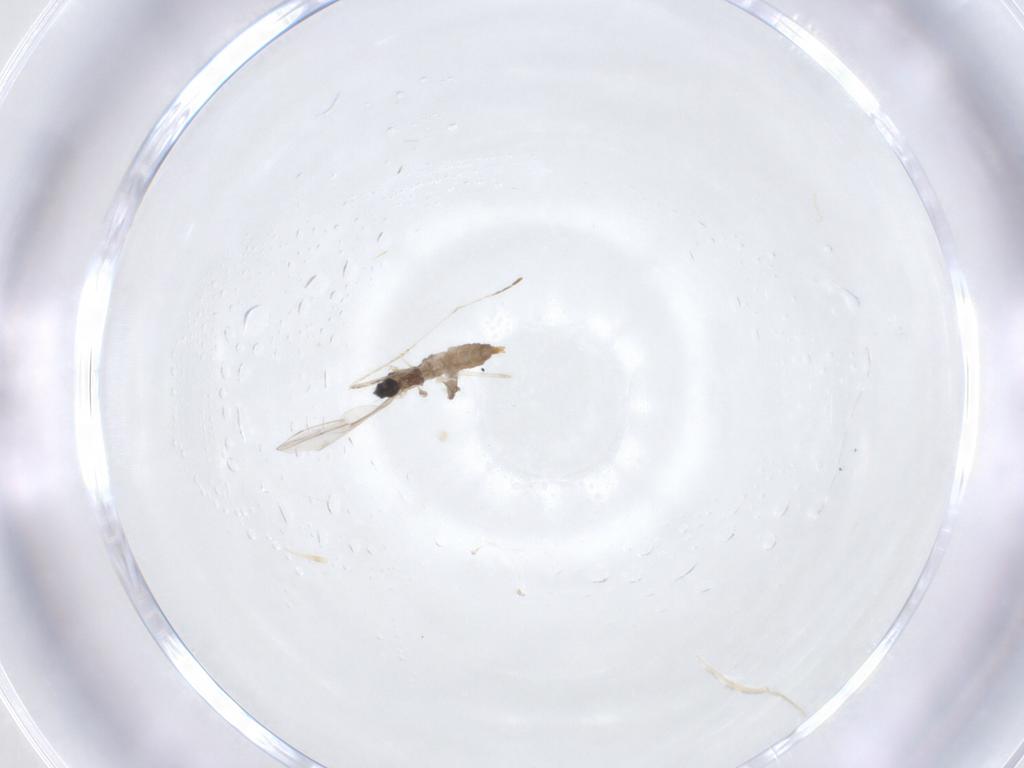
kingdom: Animalia
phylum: Arthropoda
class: Insecta
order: Diptera
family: Cecidomyiidae
